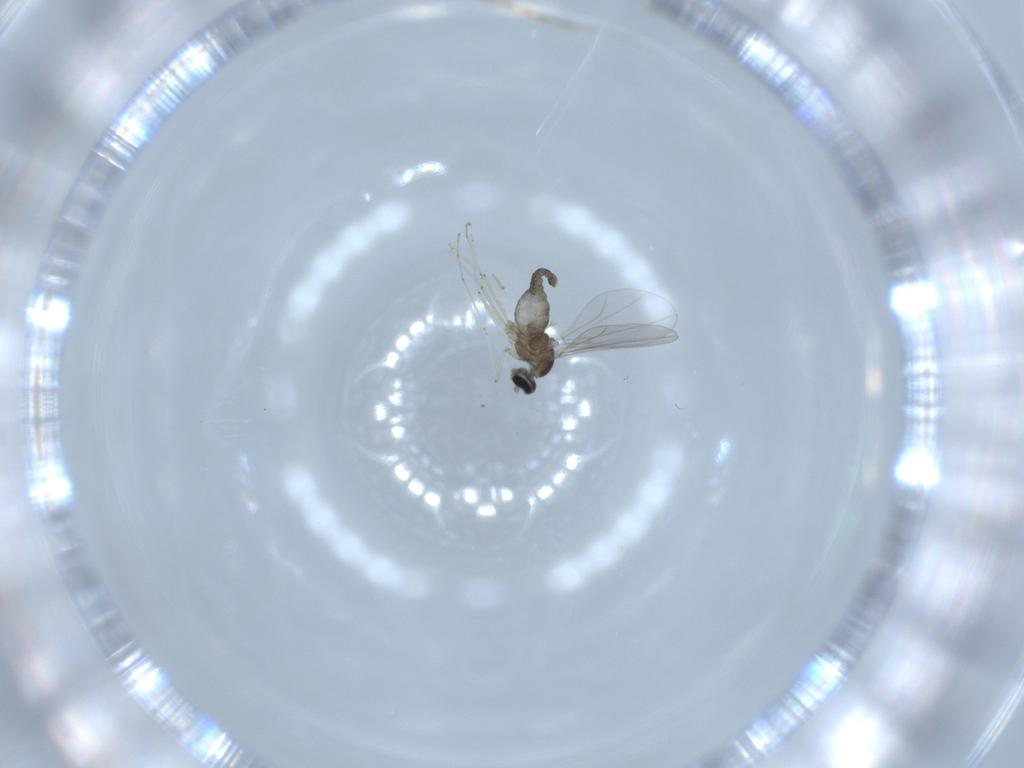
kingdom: Animalia
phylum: Arthropoda
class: Insecta
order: Diptera
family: Cecidomyiidae
